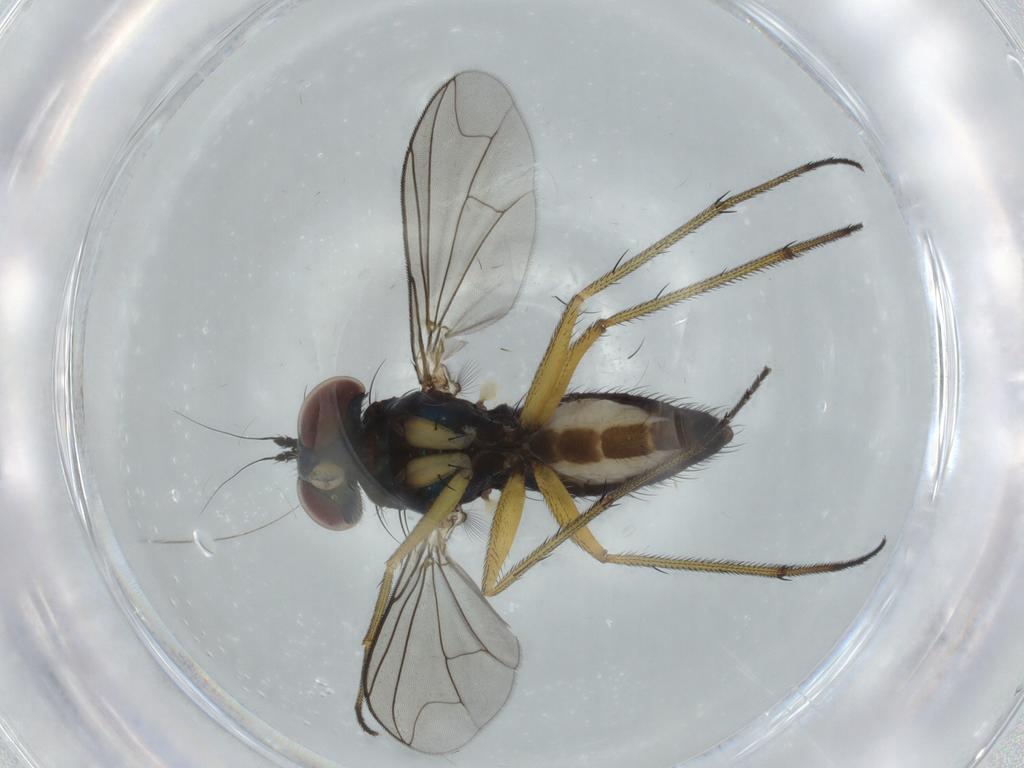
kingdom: Animalia
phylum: Arthropoda
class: Insecta
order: Diptera
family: Dolichopodidae
